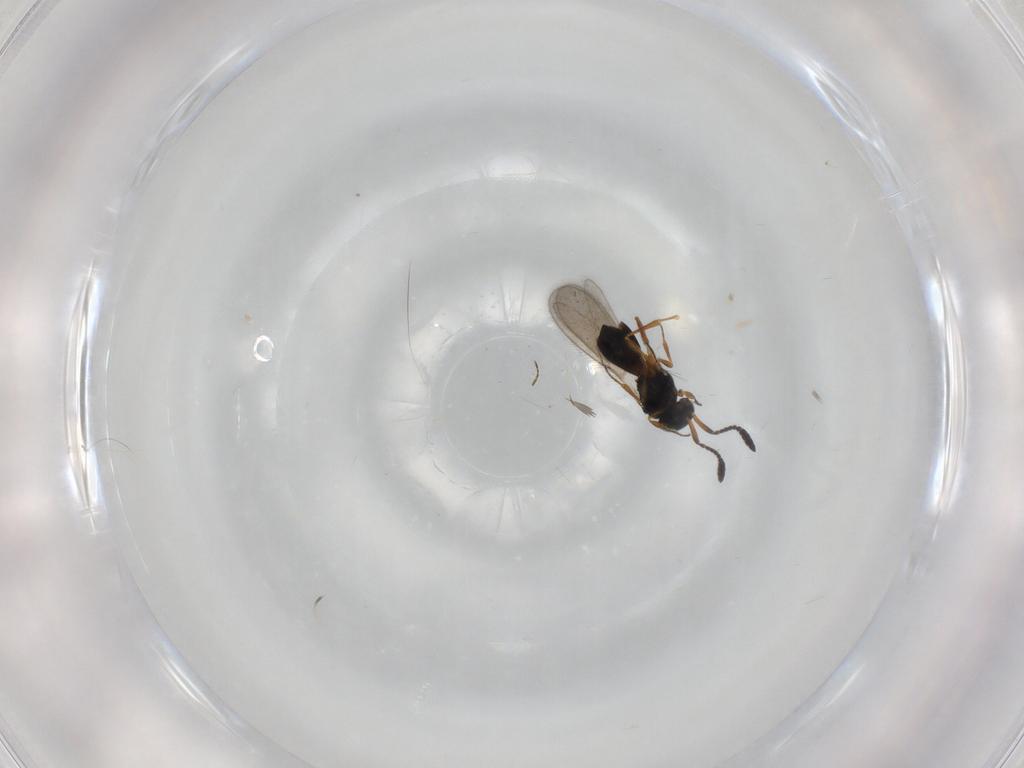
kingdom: Animalia
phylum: Arthropoda
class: Insecta
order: Hymenoptera
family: Scelionidae
